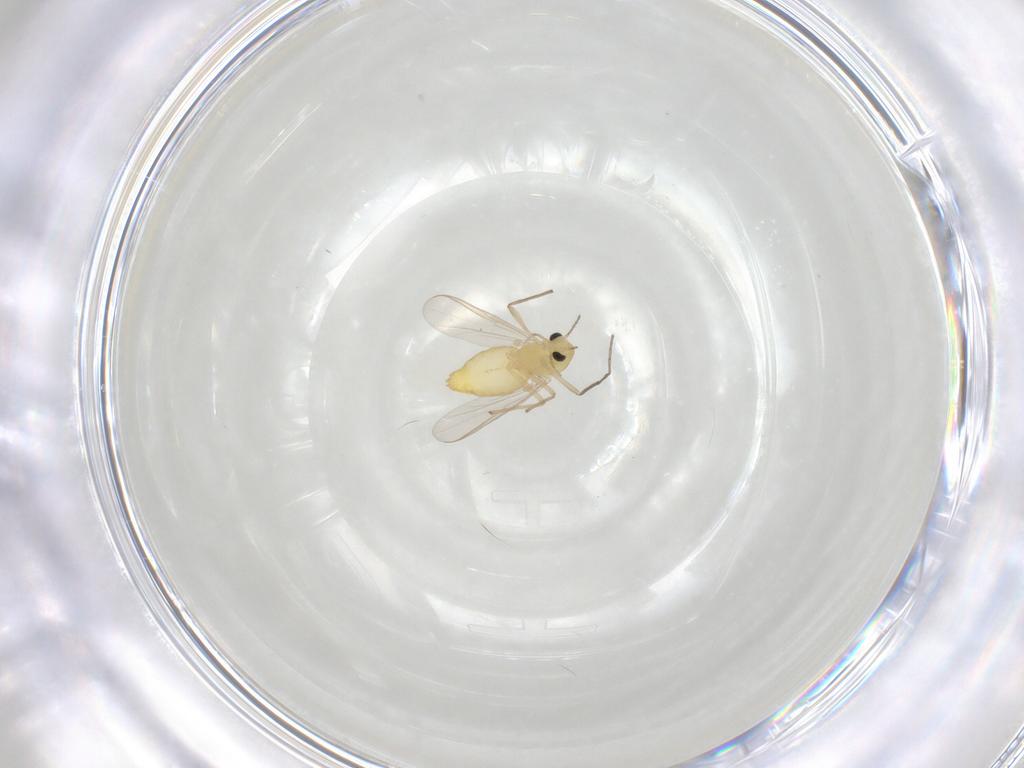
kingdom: Animalia
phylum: Arthropoda
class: Insecta
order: Diptera
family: Chironomidae
